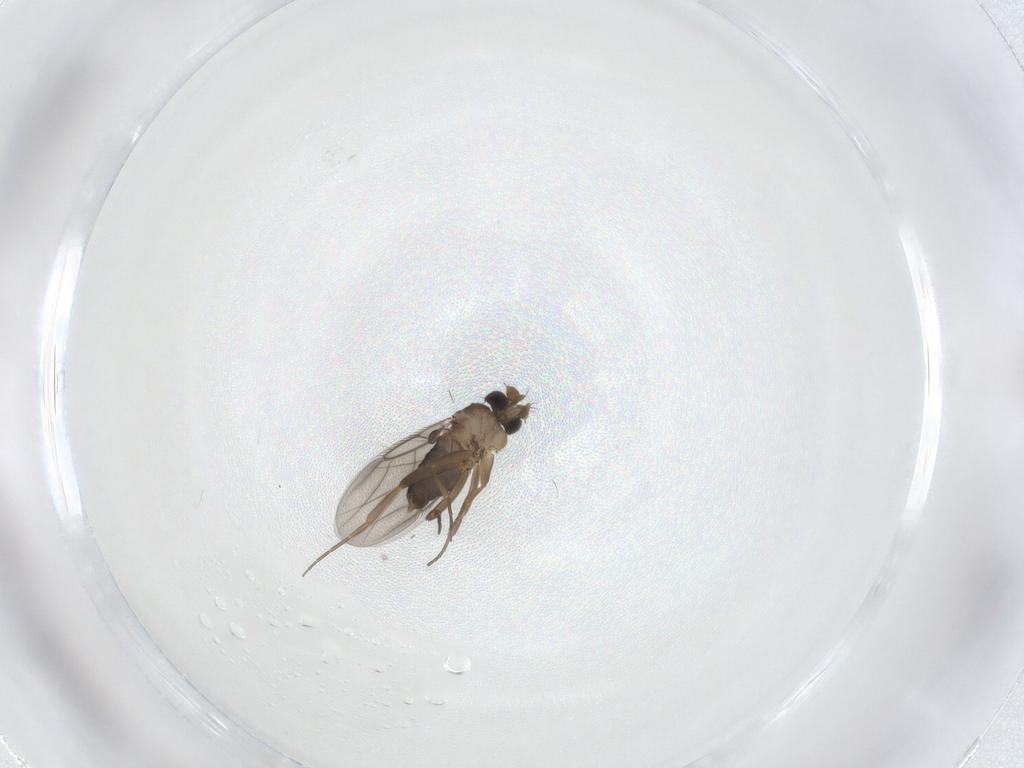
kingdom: Animalia
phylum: Arthropoda
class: Insecta
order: Diptera
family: Phoridae
